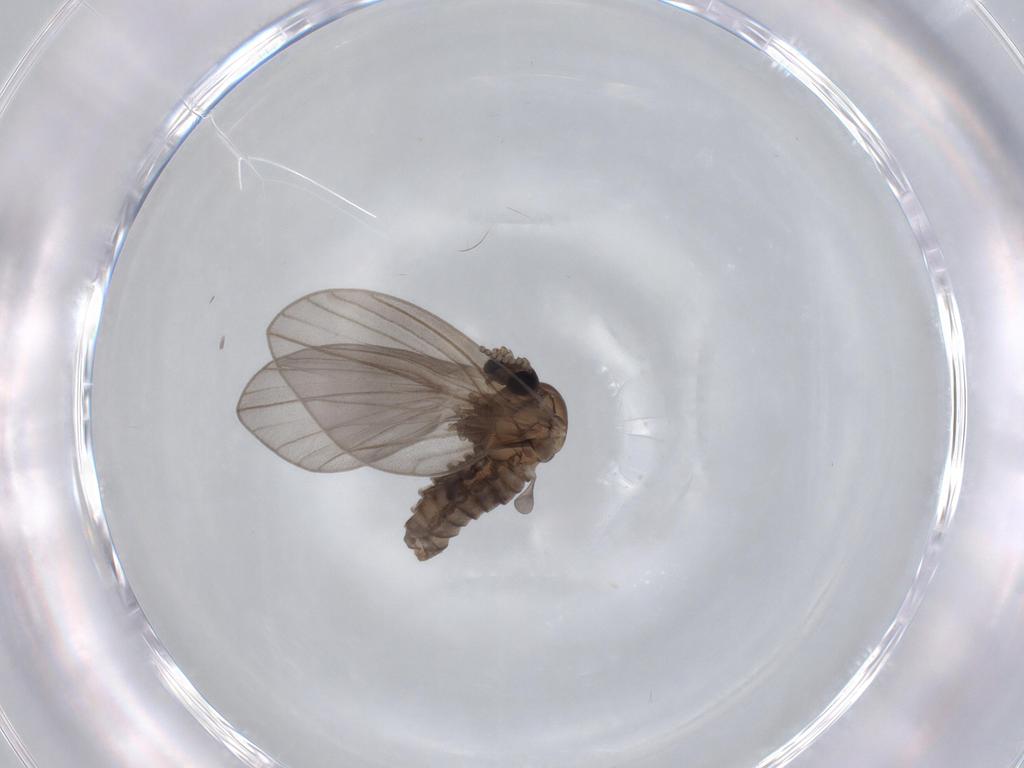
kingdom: Animalia
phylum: Arthropoda
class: Insecta
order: Diptera
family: Psychodidae
